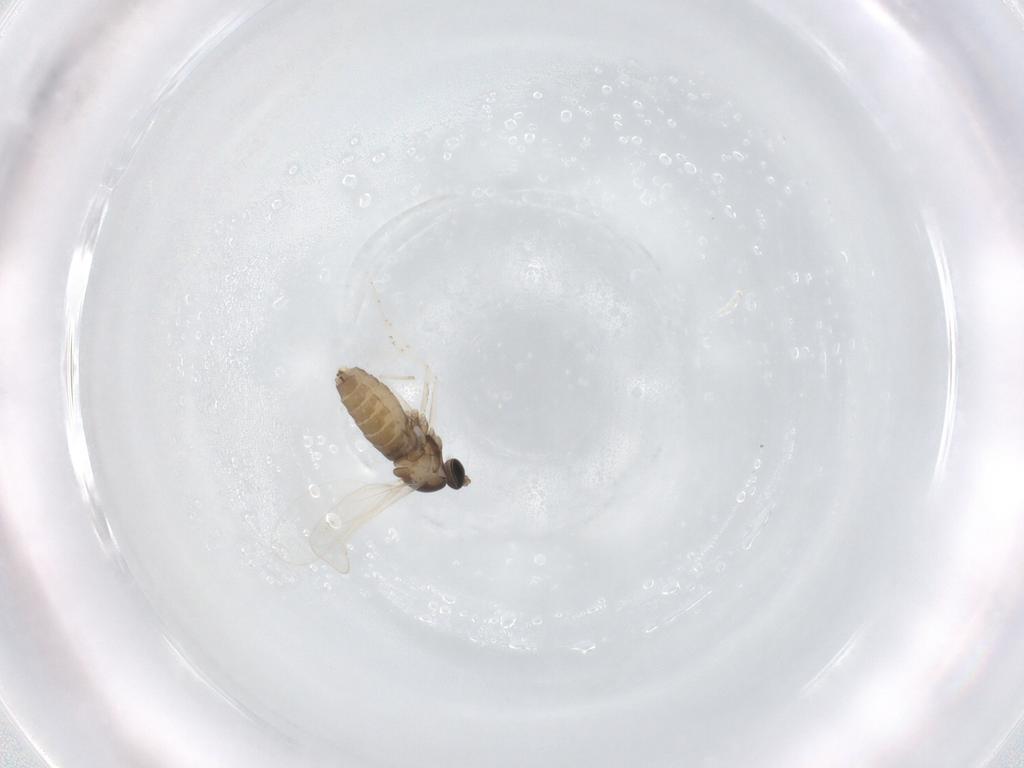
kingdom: Animalia
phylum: Arthropoda
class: Insecta
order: Diptera
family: Cecidomyiidae
